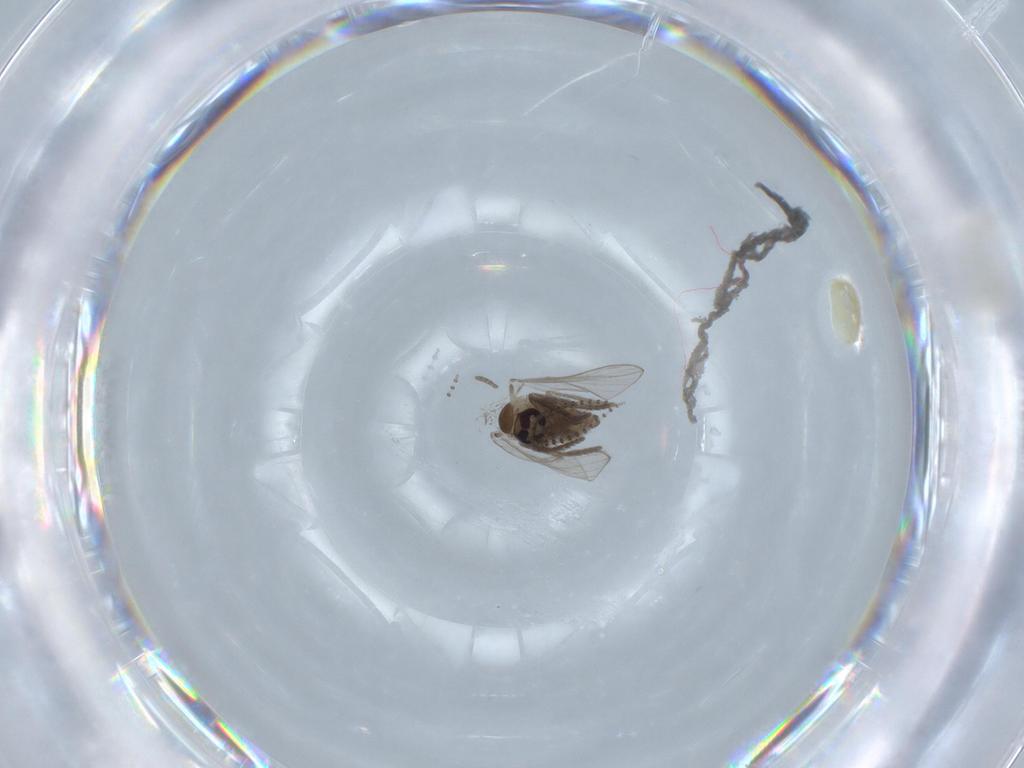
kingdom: Animalia
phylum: Arthropoda
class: Insecta
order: Diptera
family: Psychodidae
